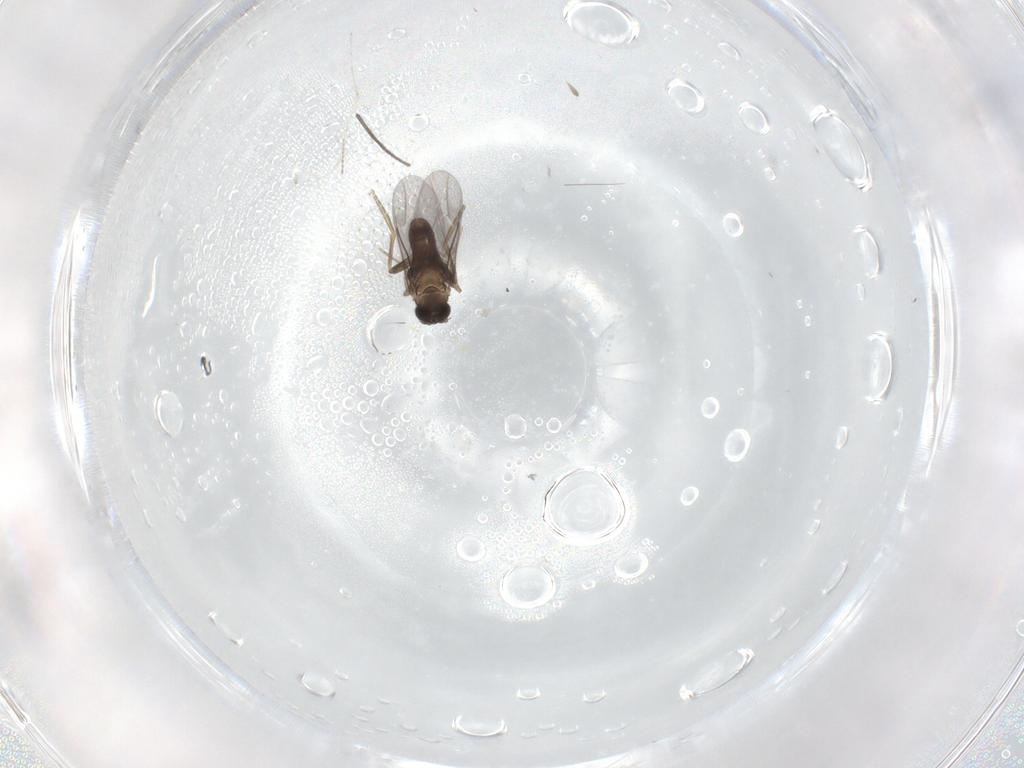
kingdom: Animalia
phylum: Arthropoda
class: Insecta
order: Diptera
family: Sciaridae
